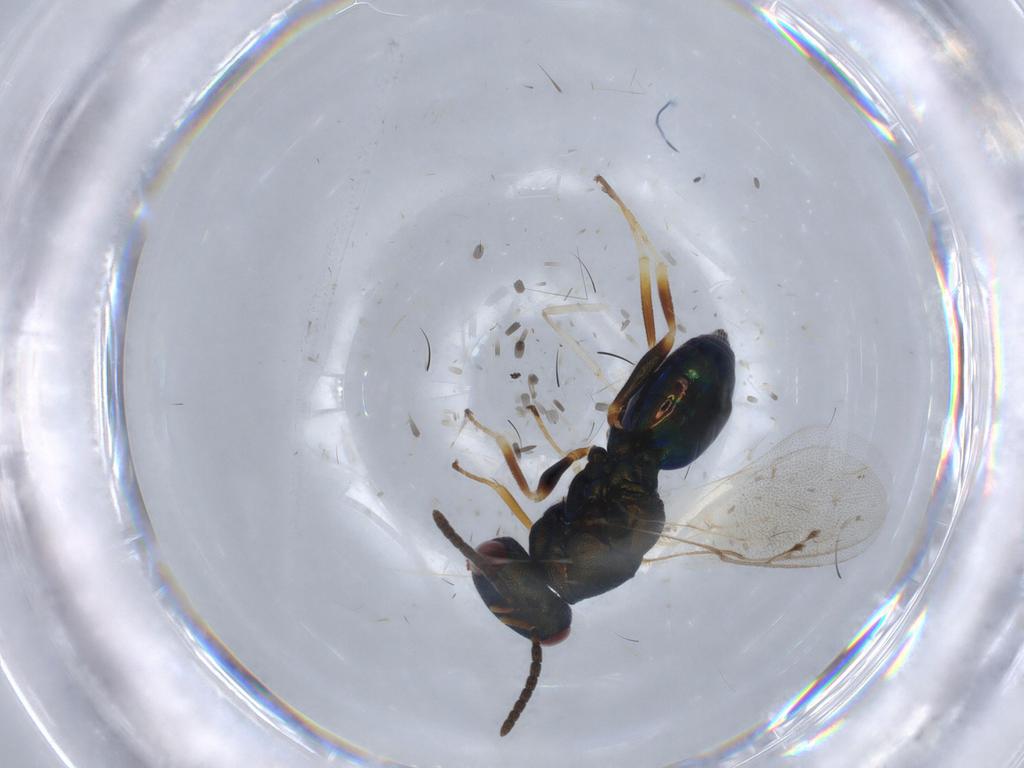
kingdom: Animalia
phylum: Arthropoda
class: Insecta
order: Hymenoptera
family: Pteromalidae
